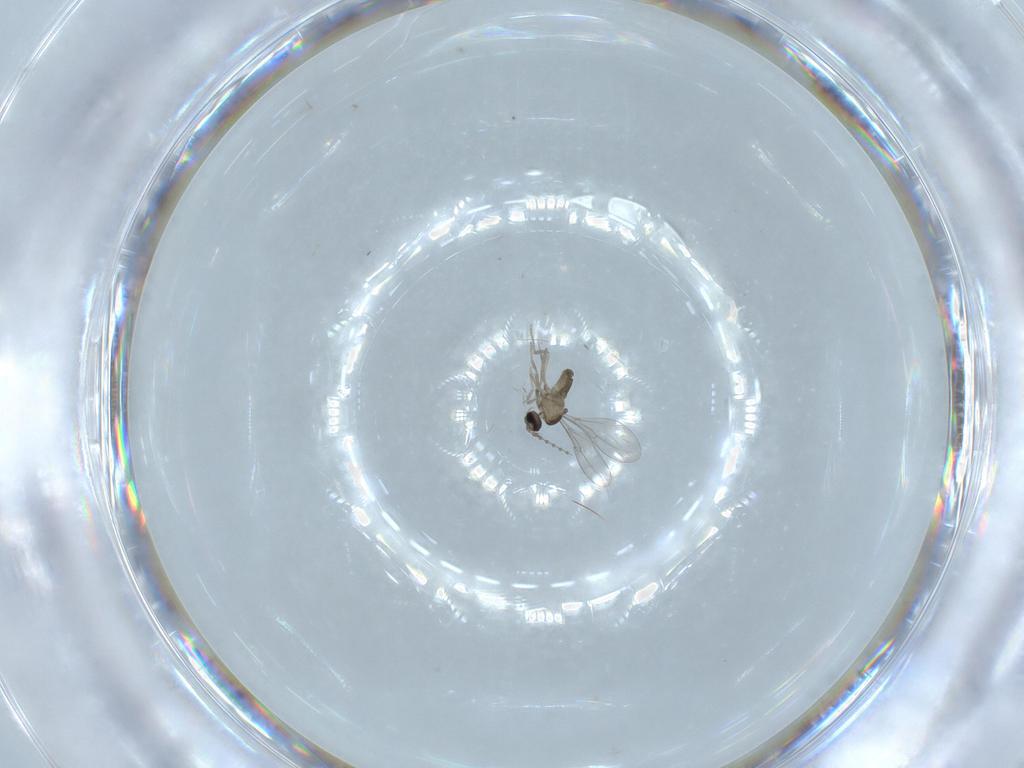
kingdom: Animalia
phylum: Arthropoda
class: Insecta
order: Diptera
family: Cecidomyiidae
